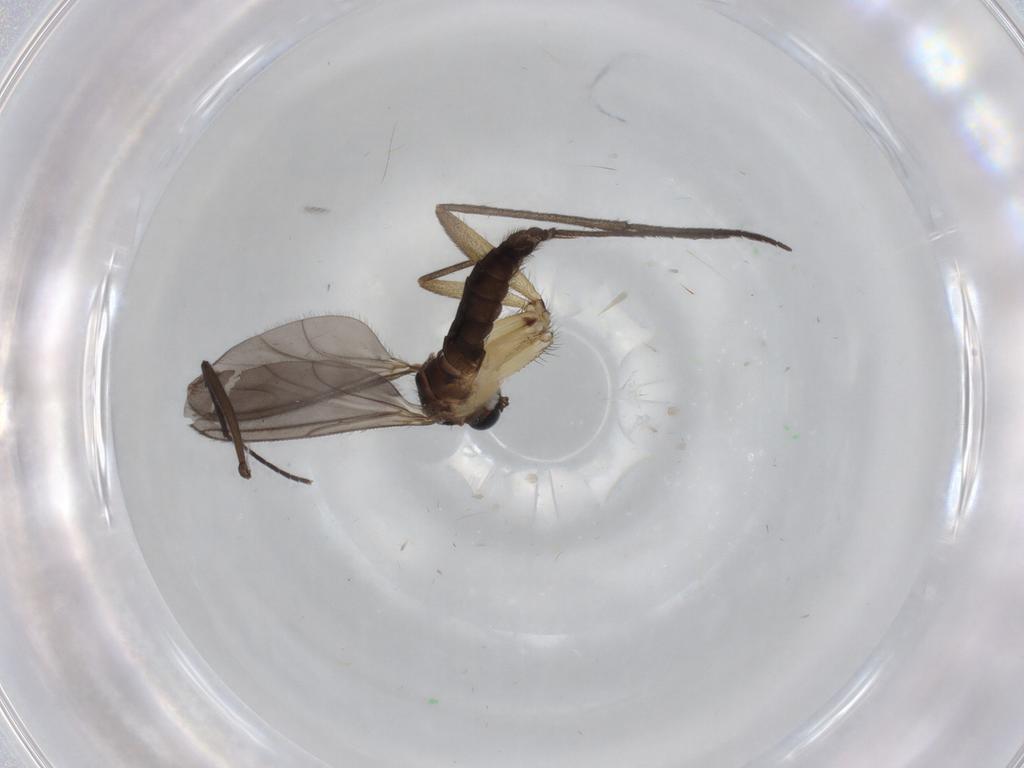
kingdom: Animalia
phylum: Arthropoda
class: Insecta
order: Diptera
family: Sciaridae
